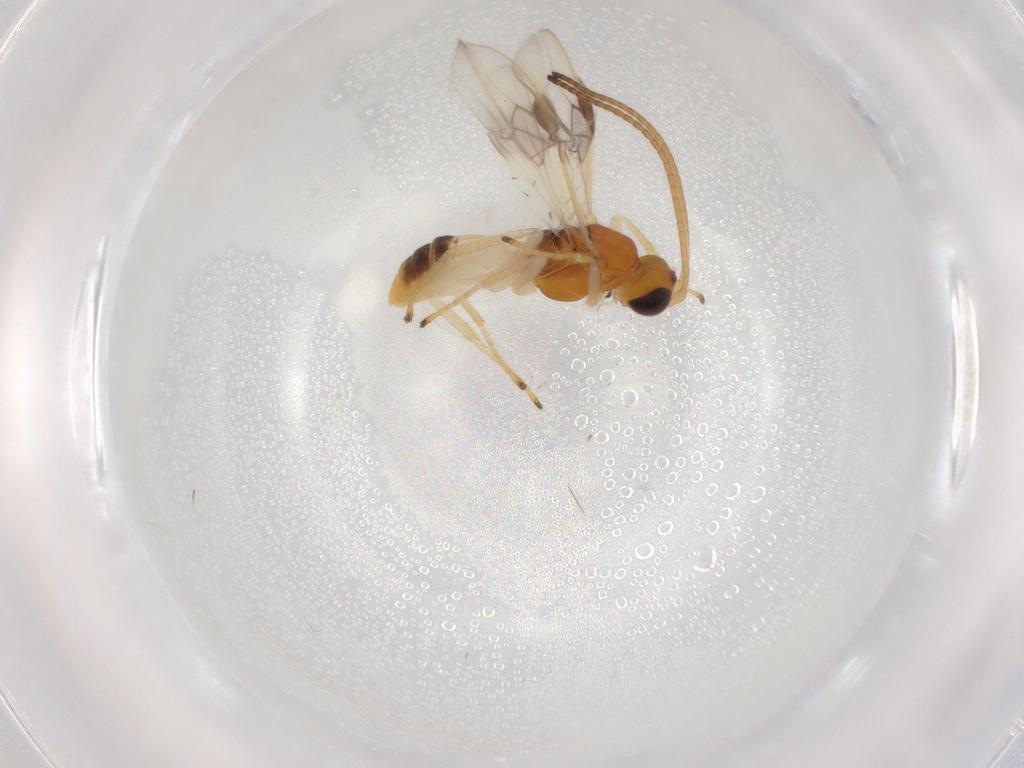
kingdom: Animalia
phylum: Arthropoda
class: Insecta
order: Hymenoptera
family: Braconidae
